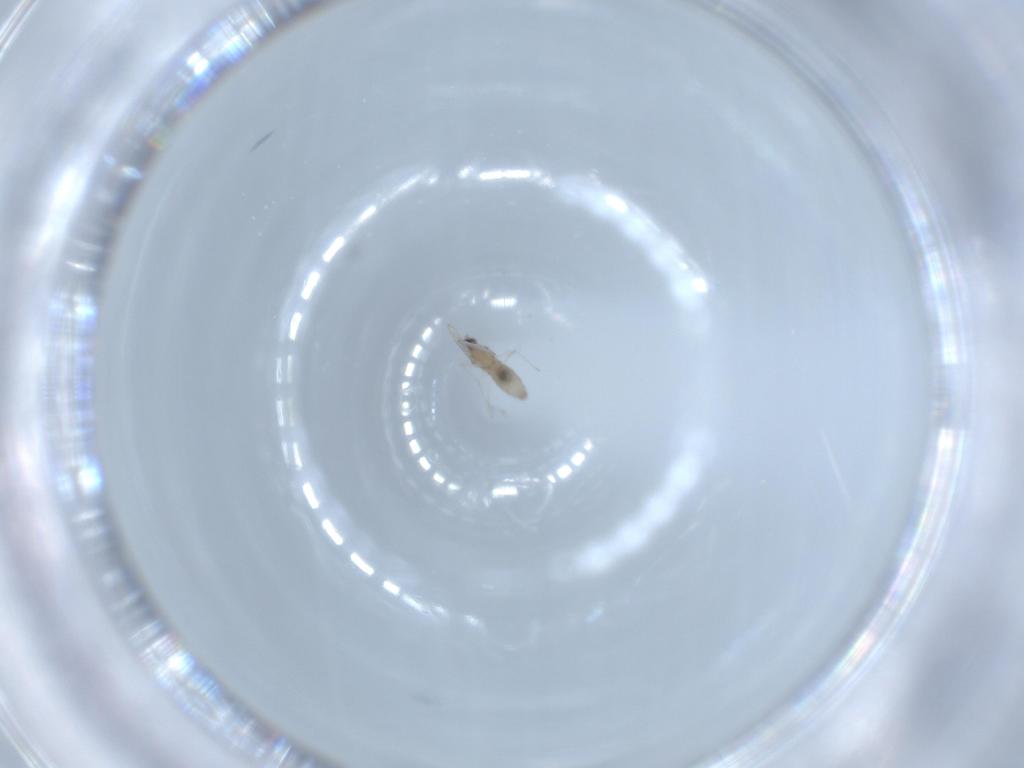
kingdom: Animalia
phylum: Arthropoda
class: Insecta
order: Diptera
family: Cecidomyiidae
